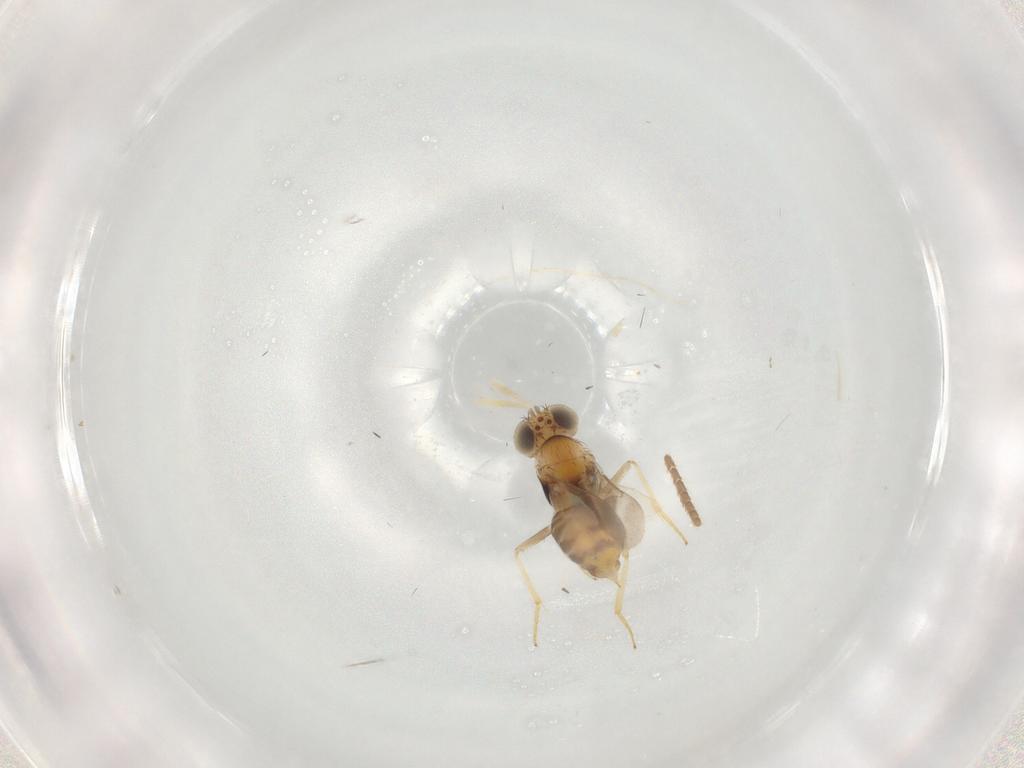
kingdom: Animalia
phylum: Arthropoda
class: Insecta
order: Hymenoptera
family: Aphelinidae
